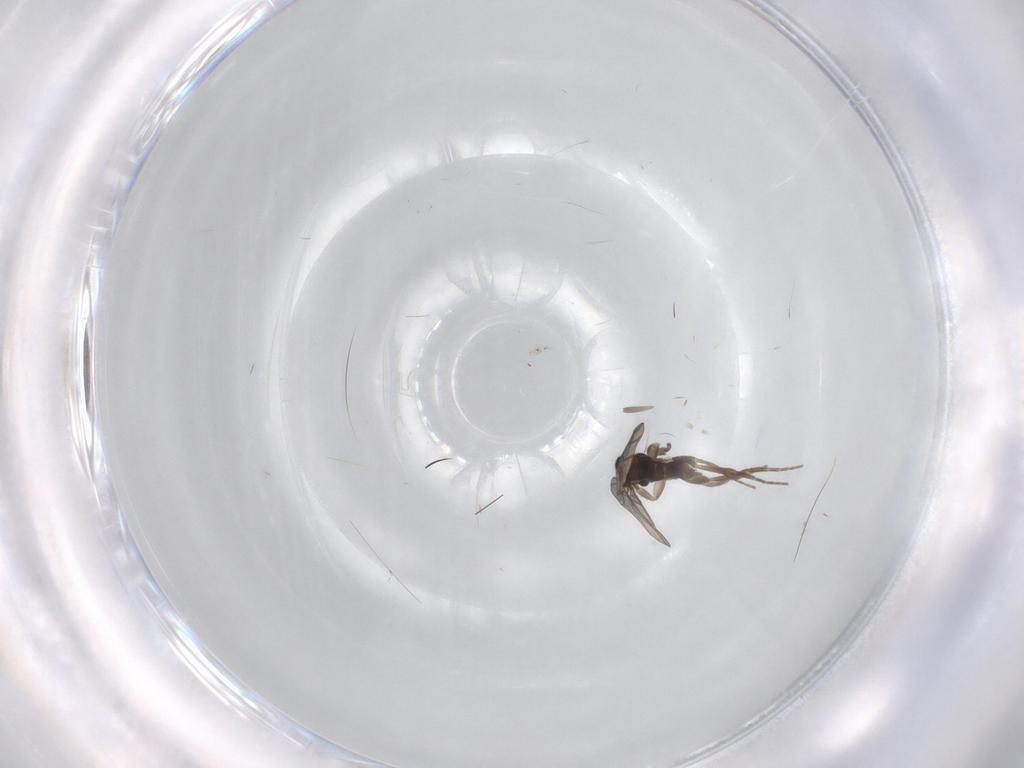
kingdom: Animalia
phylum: Arthropoda
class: Insecta
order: Diptera
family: Phoridae
